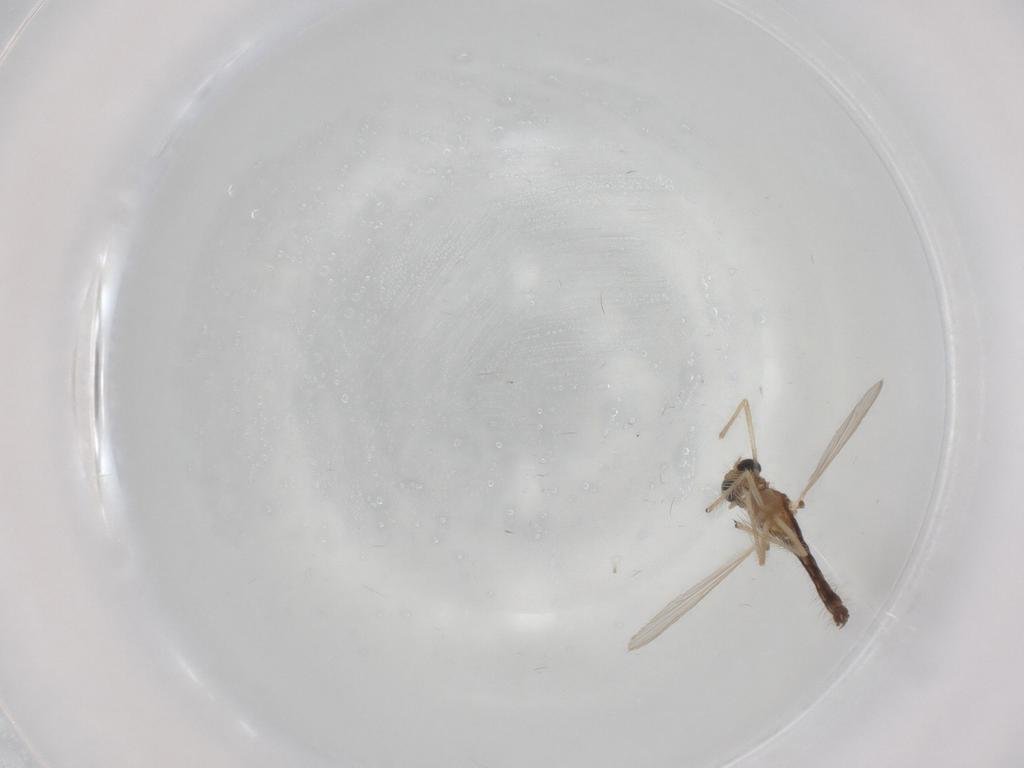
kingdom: Animalia
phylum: Arthropoda
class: Insecta
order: Diptera
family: Chironomidae
